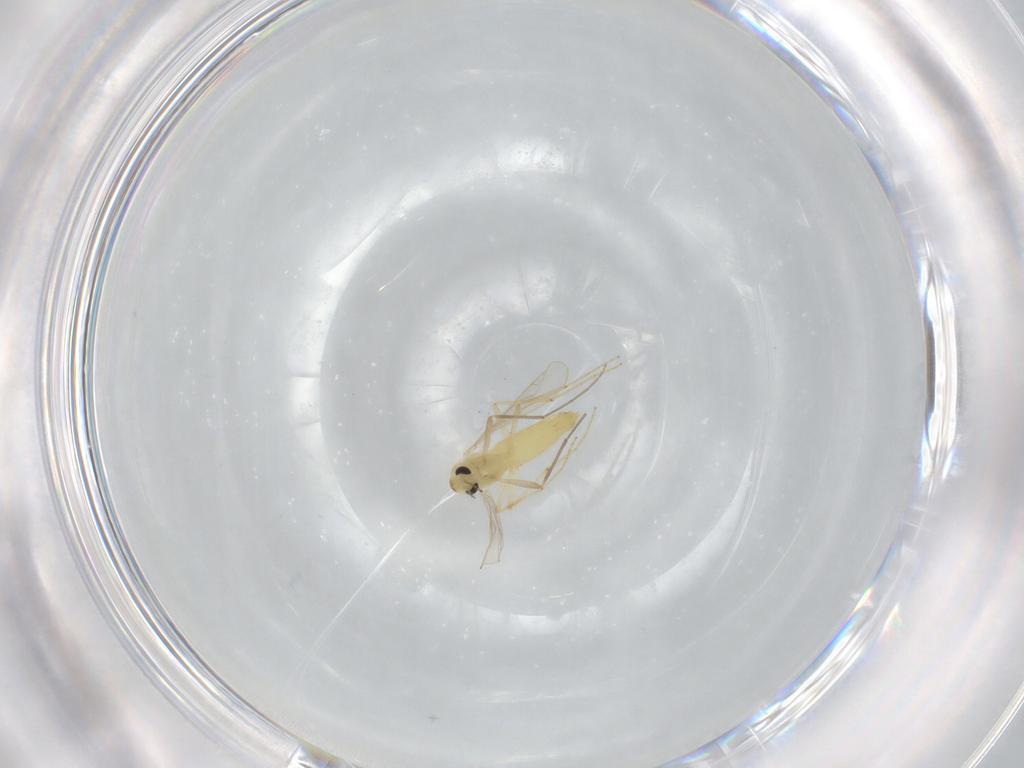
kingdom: Animalia
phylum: Arthropoda
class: Insecta
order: Diptera
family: Chironomidae
